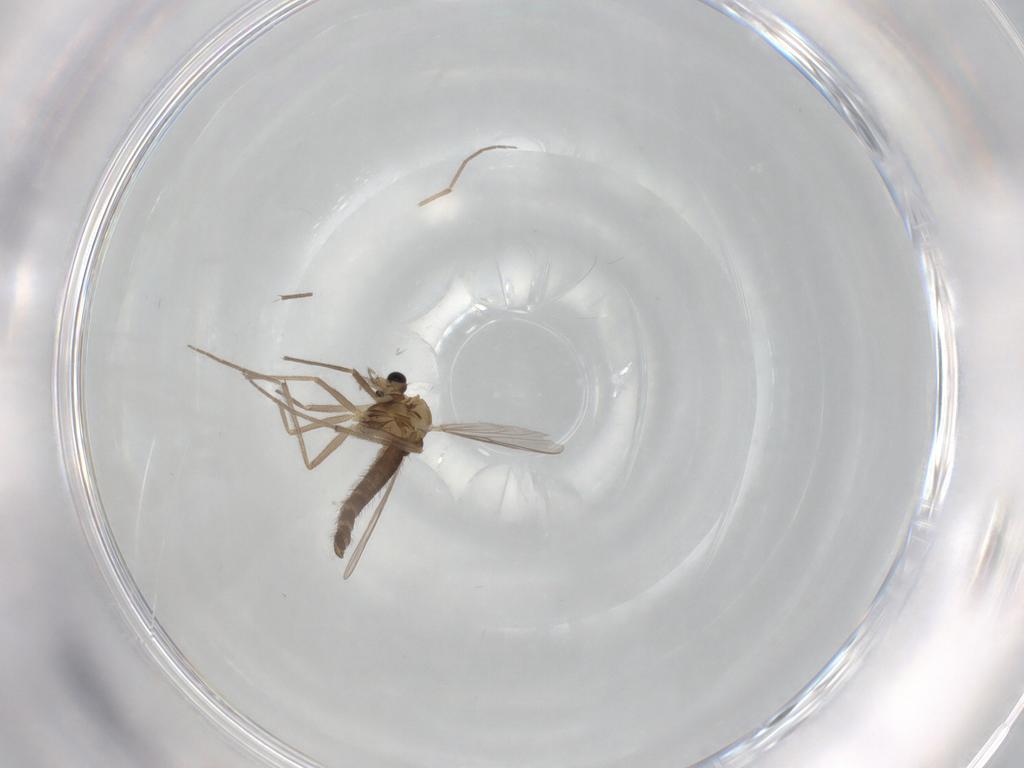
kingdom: Animalia
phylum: Arthropoda
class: Insecta
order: Diptera
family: Chironomidae
